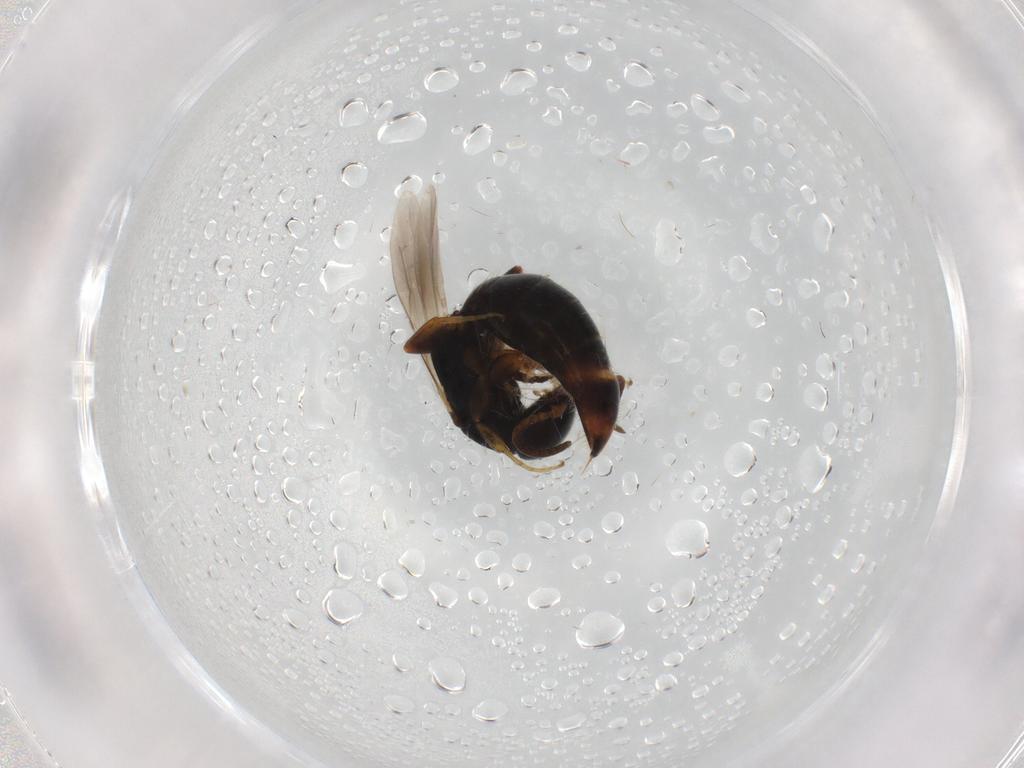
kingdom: Animalia
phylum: Arthropoda
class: Insecta
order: Hymenoptera
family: Bethylidae
